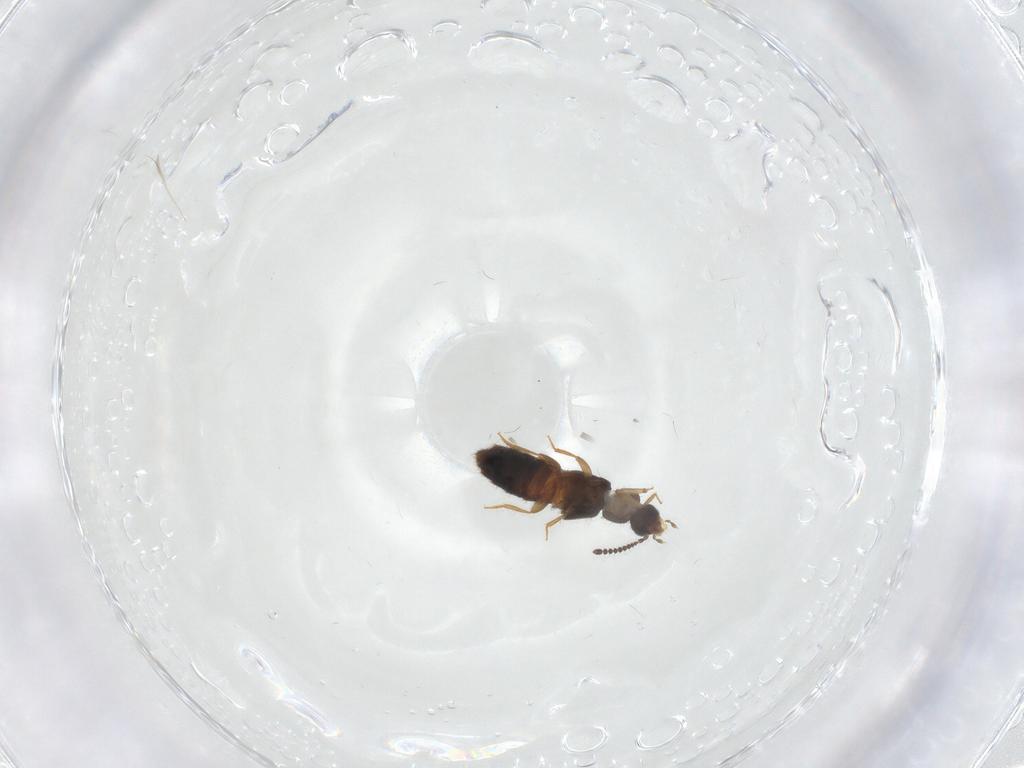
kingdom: Animalia
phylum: Arthropoda
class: Insecta
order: Coleoptera
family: Staphylinidae
